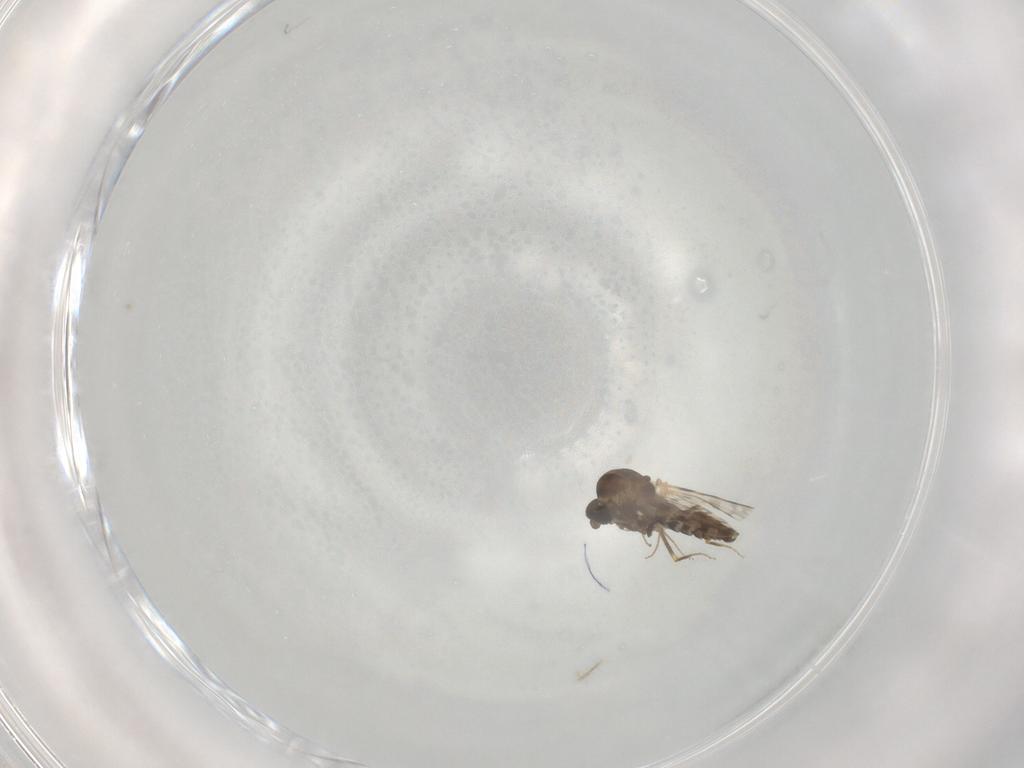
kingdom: Animalia
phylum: Arthropoda
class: Insecta
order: Diptera
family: Ceratopogonidae
